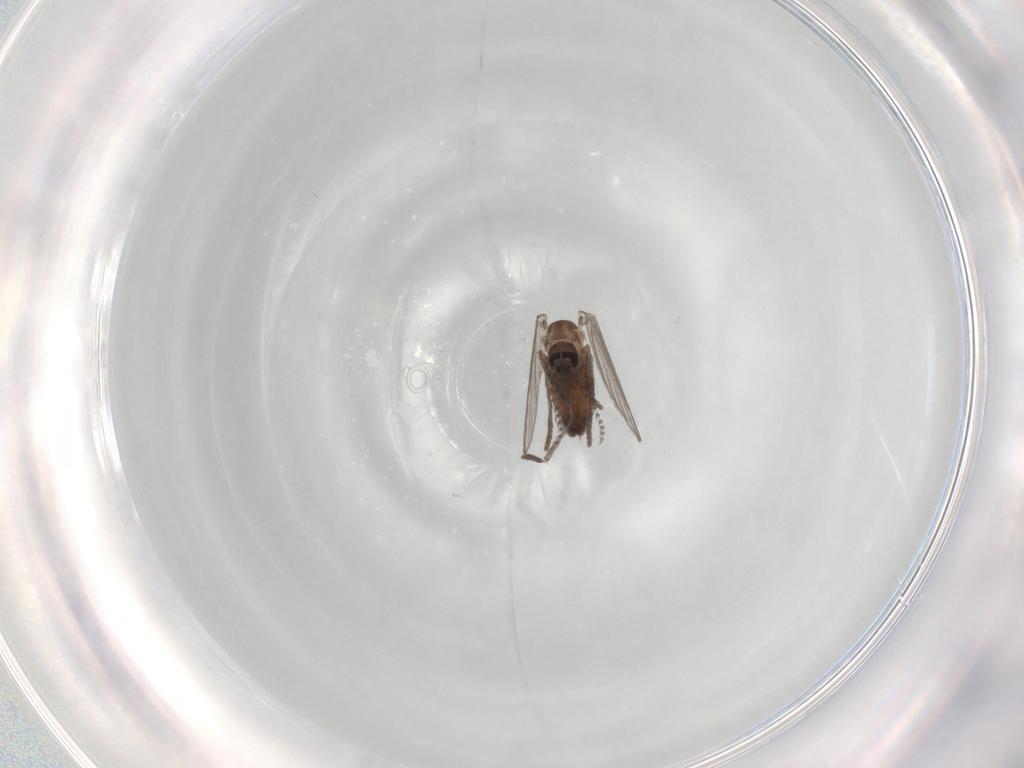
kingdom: Animalia
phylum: Arthropoda
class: Insecta
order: Diptera
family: Psychodidae
